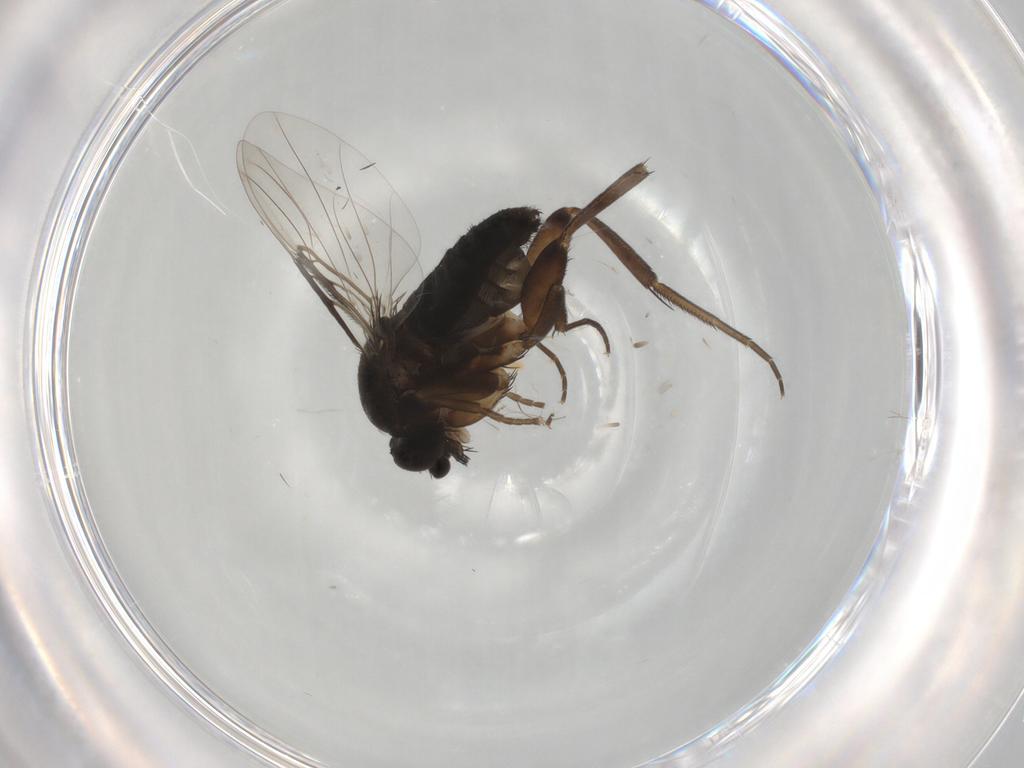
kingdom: Animalia
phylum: Arthropoda
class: Insecta
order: Diptera
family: Phoridae
